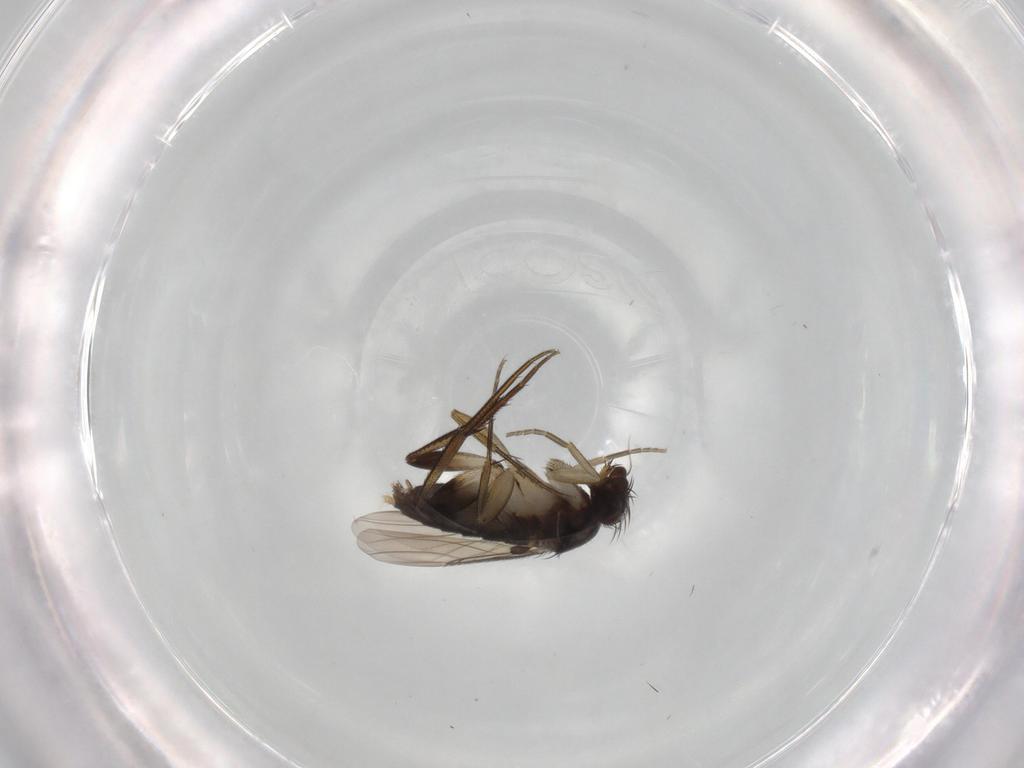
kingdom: Animalia
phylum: Arthropoda
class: Insecta
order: Diptera
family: Phoridae
